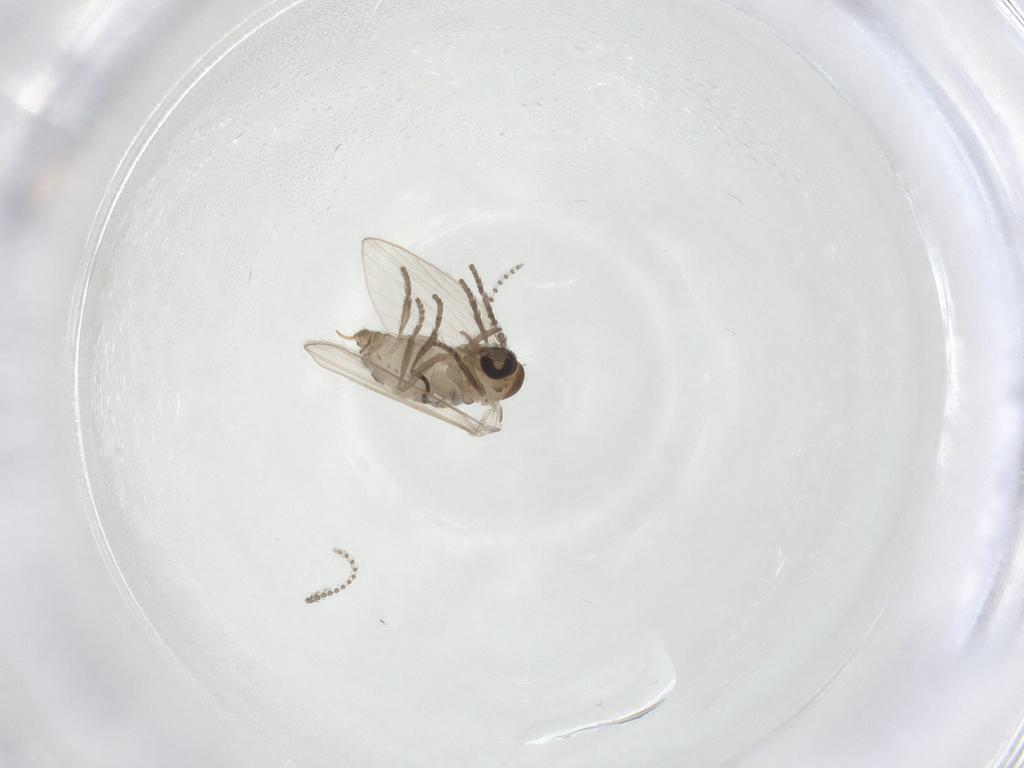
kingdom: Animalia
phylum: Arthropoda
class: Insecta
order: Diptera
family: Psychodidae
